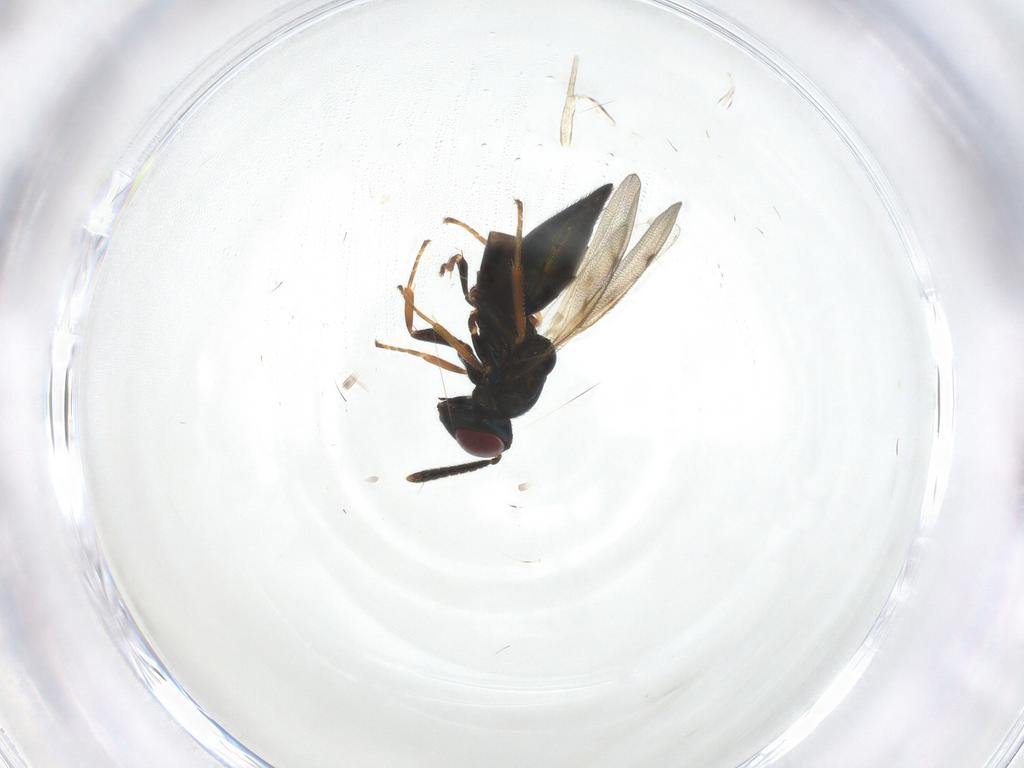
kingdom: Animalia
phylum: Arthropoda
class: Insecta
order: Hymenoptera
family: Pteromalidae
